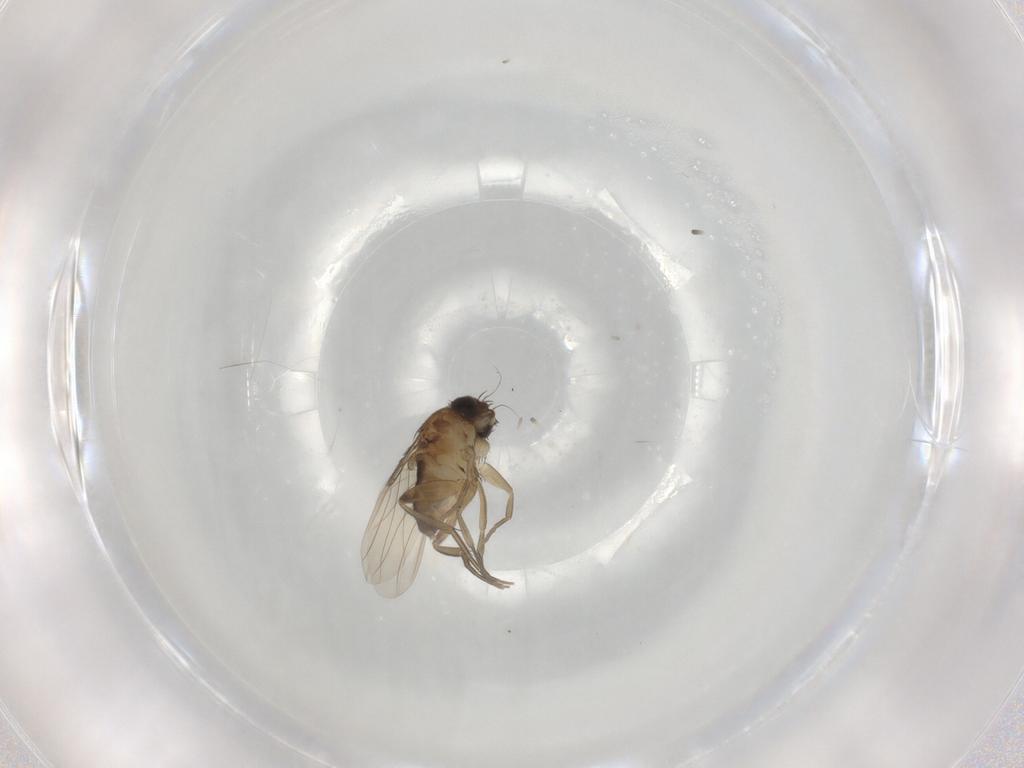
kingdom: Animalia
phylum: Arthropoda
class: Insecta
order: Diptera
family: Phoridae
